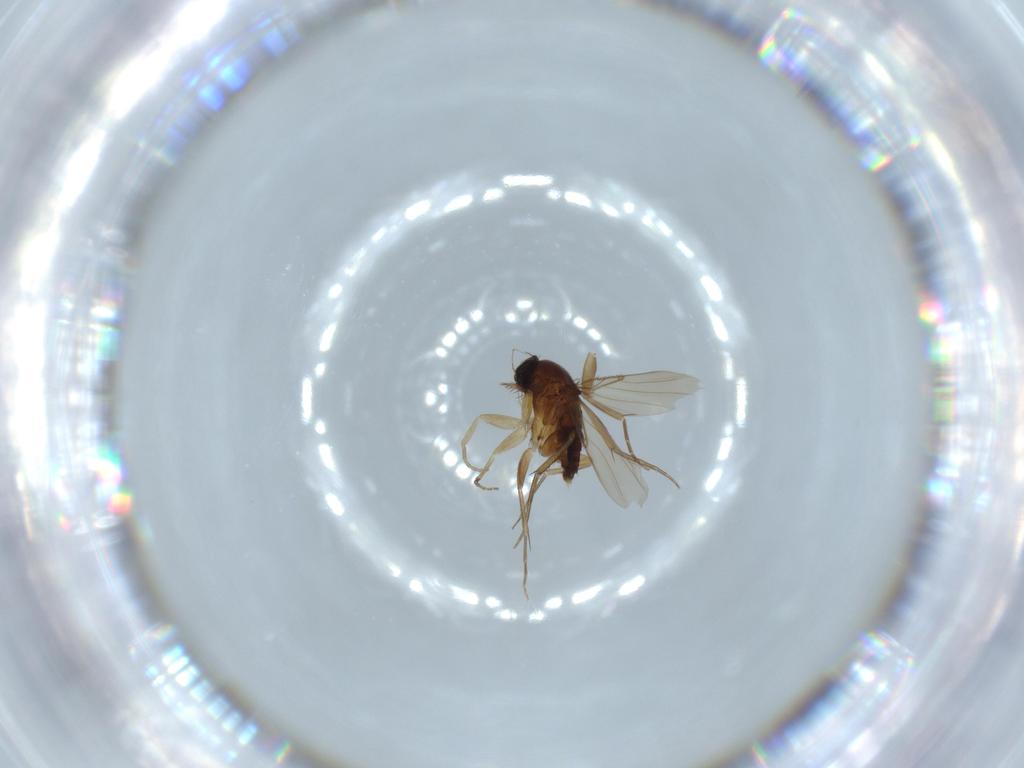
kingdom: Animalia
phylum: Arthropoda
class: Insecta
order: Diptera
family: Phoridae
